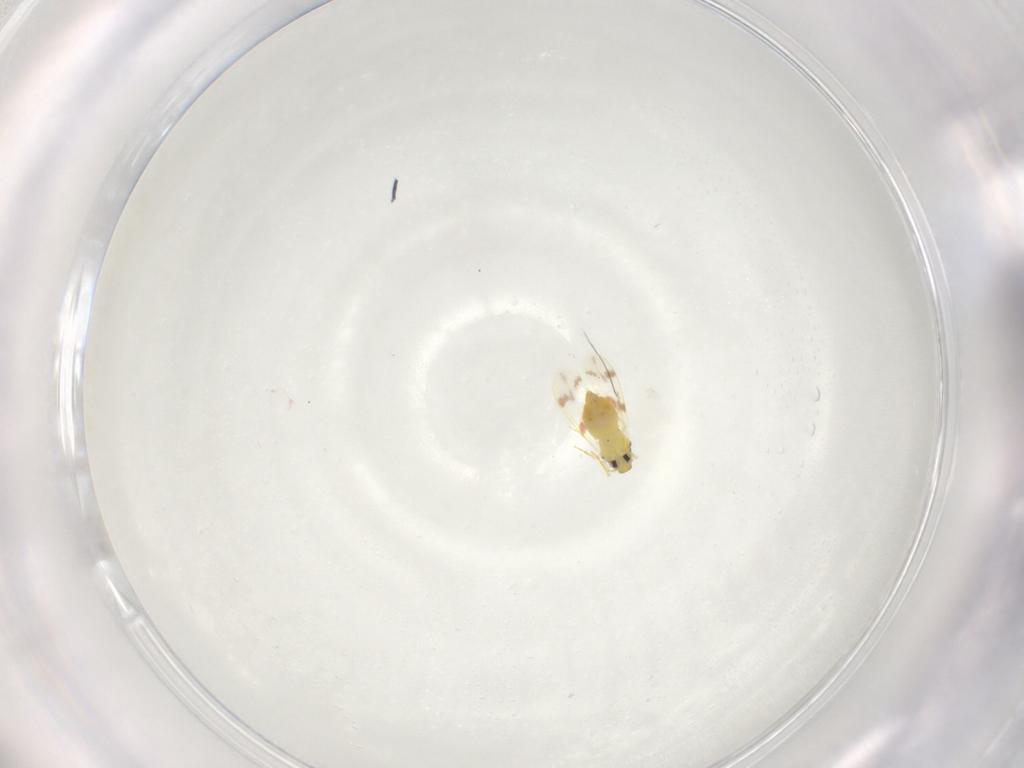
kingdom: Animalia
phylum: Arthropoda
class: Insecta
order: Hemiptera
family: Aleyrodidae
